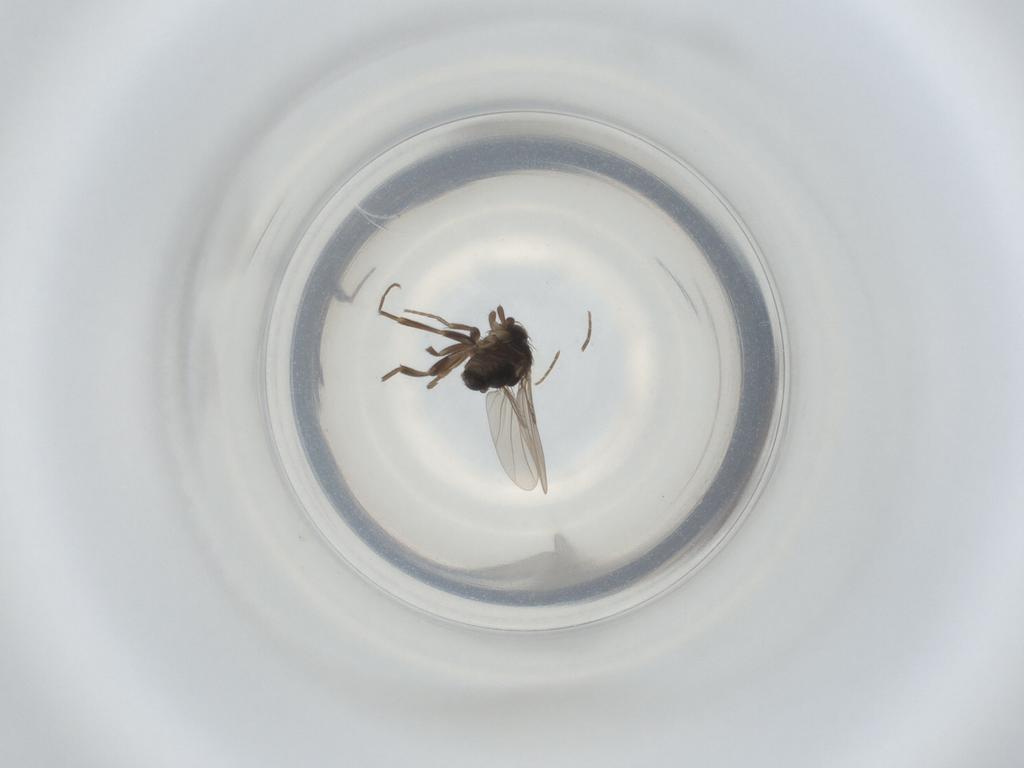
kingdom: Animalia
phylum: Arthropoda
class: Insecta
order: Diptera
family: Phoridae
